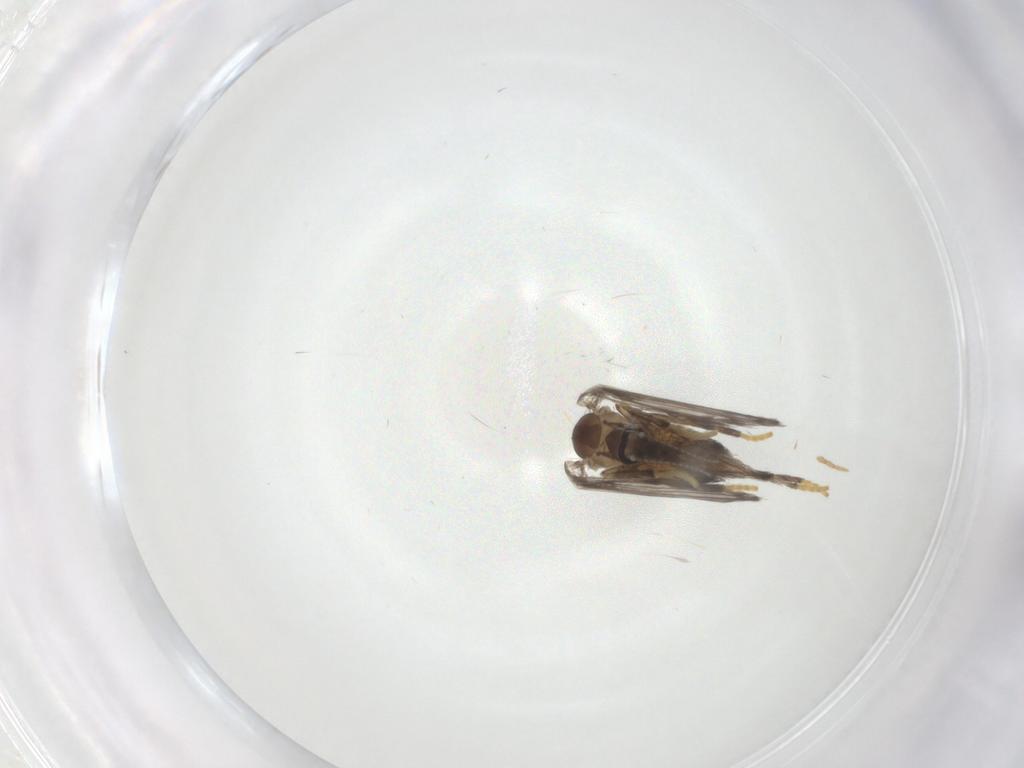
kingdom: Animalia
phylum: Arthropoda
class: Insecta
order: Diptera
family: Psychodidae
